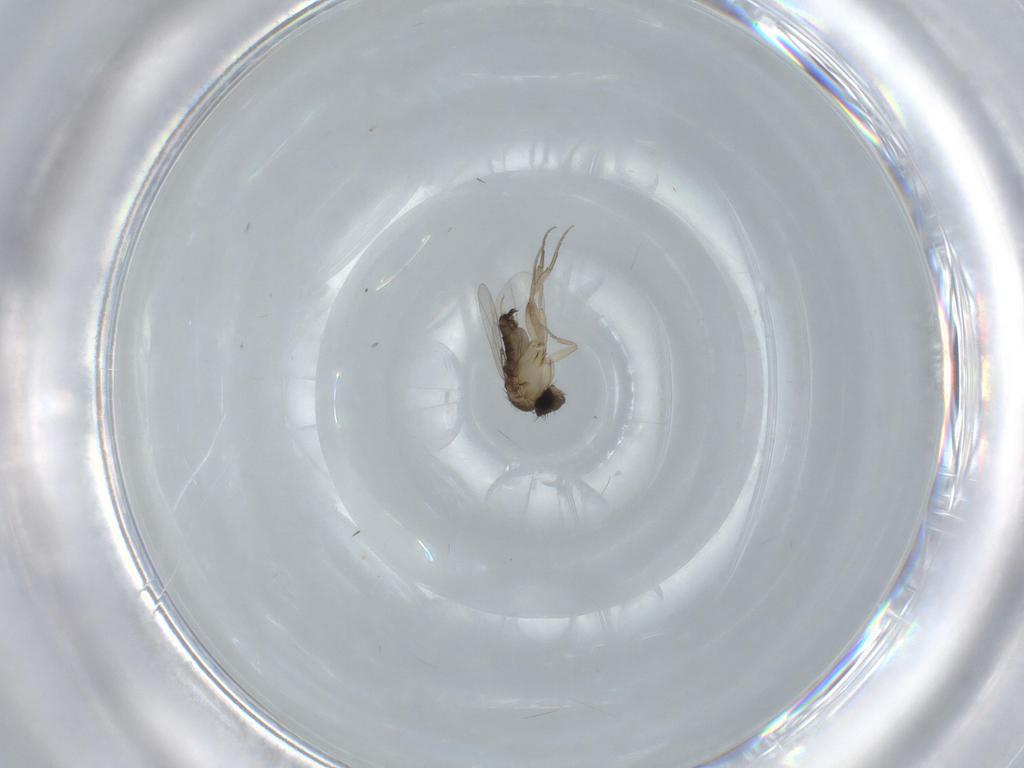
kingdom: Animalia
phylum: Arthropoda
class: Insecta
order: Diptera
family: Phoridae
